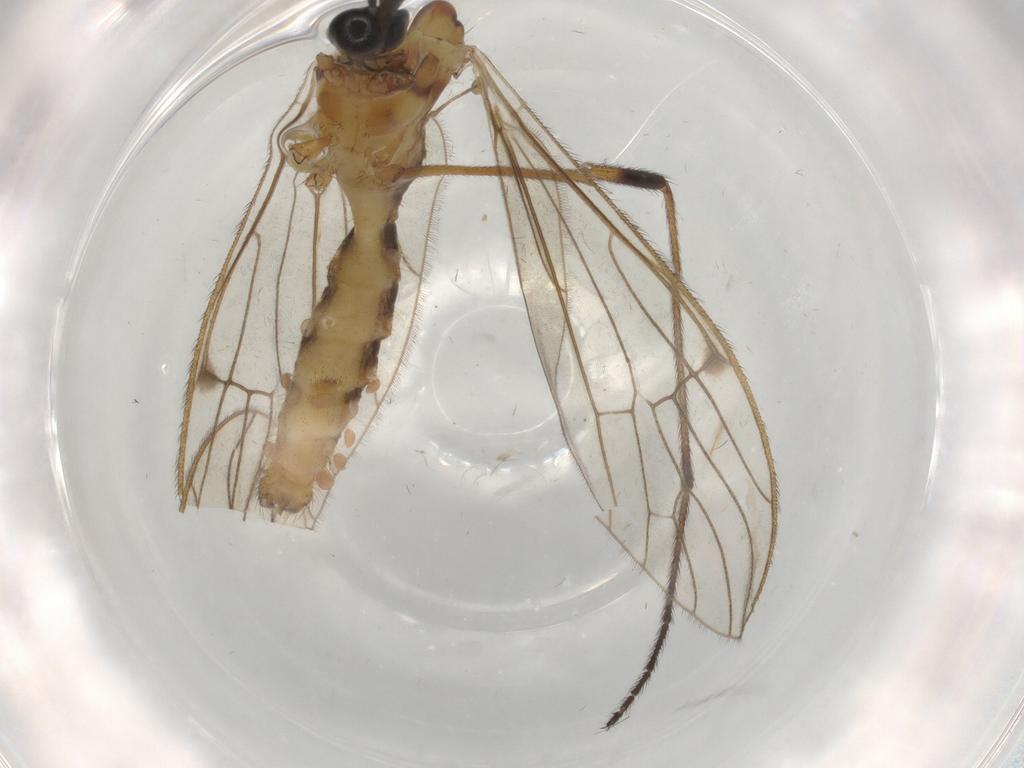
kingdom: Animalia
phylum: Arthropoda
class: Insecta
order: Diptera
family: Limoniidae
